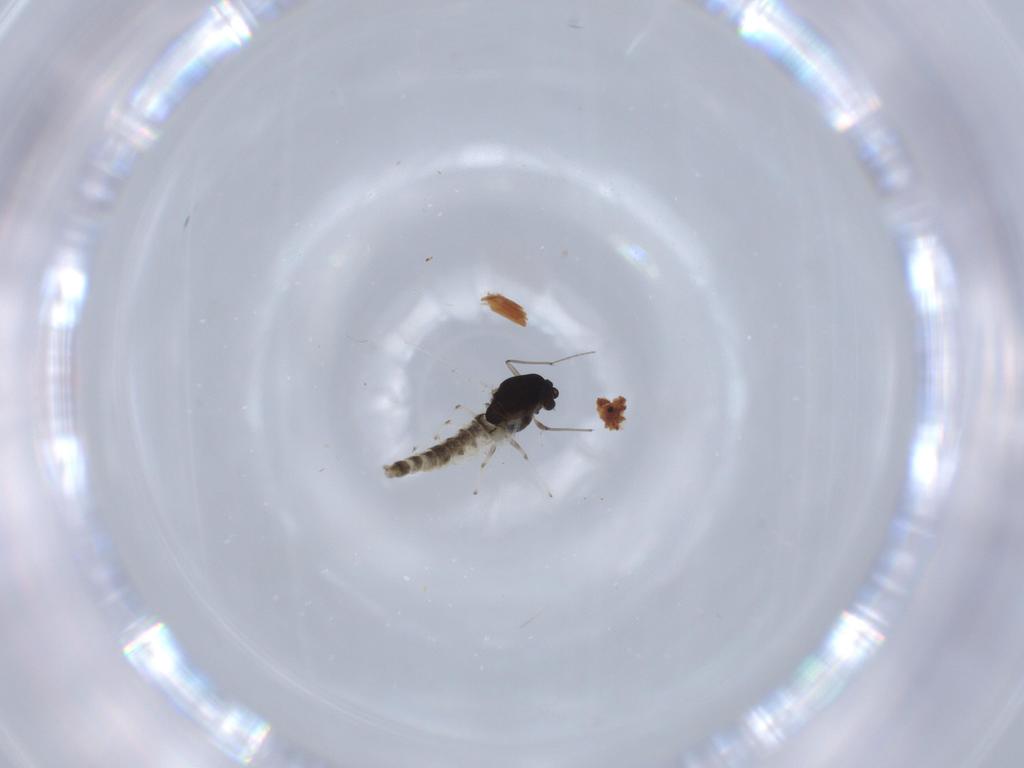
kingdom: Animalia
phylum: Arthropoda
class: Insecta
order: Diptera
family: Chironomidae
